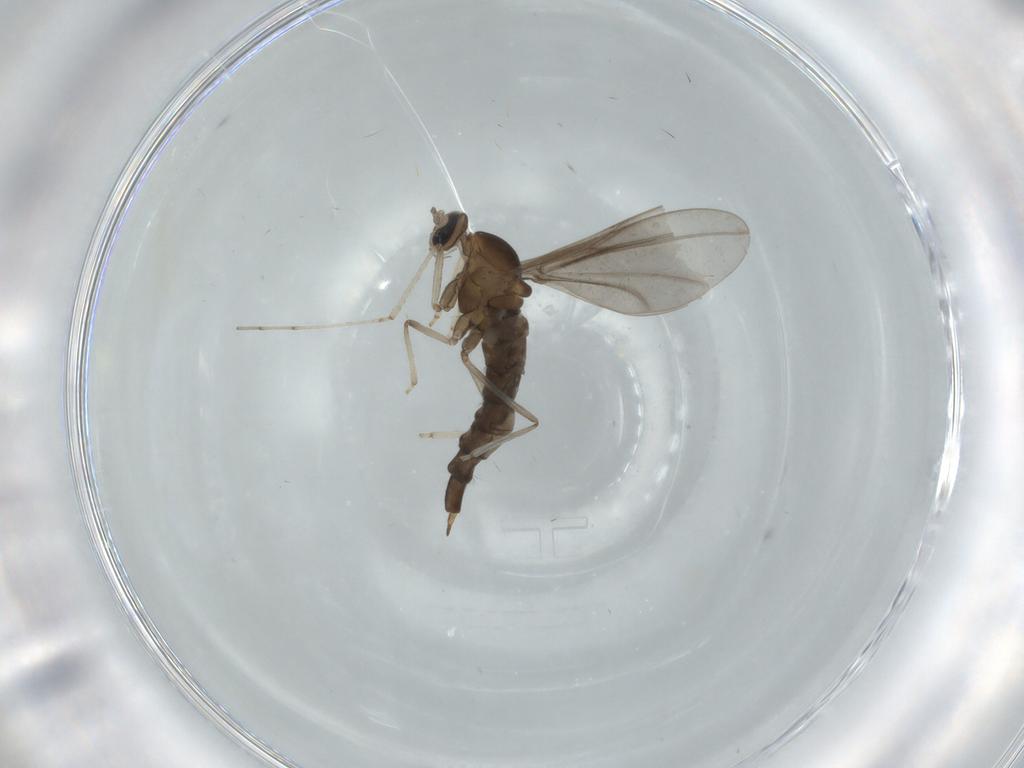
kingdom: Animalia
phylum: Arthropoda
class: Insecta
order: Diptera
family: Cecidomyiidae
